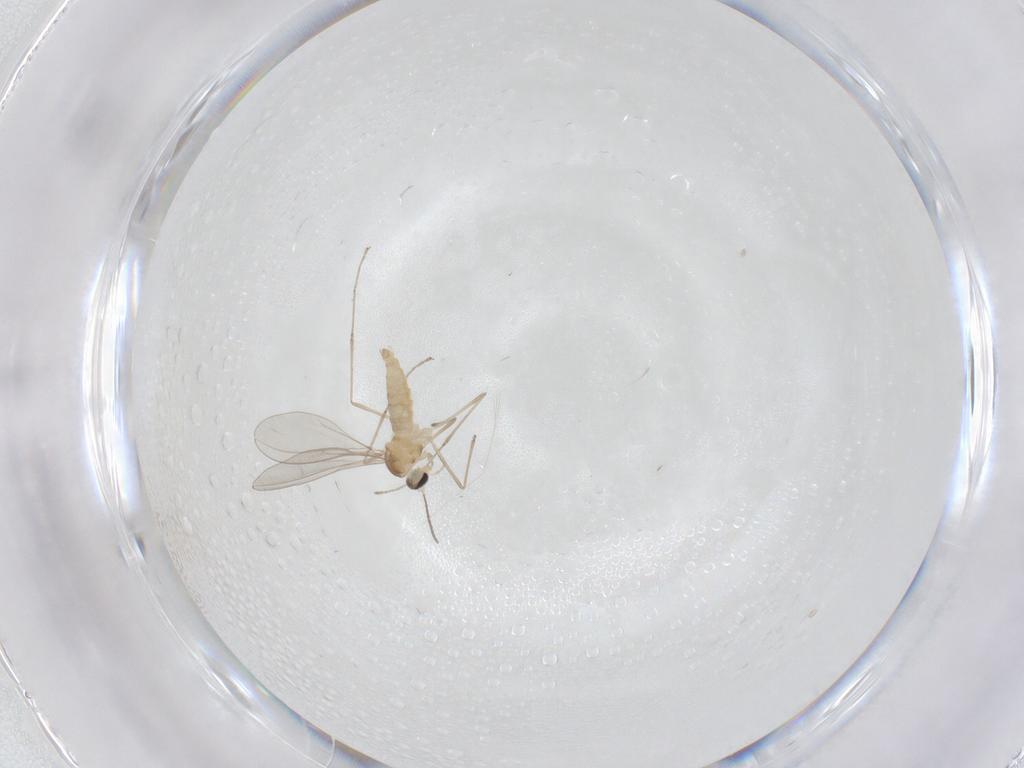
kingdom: Animalia
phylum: Arthropoda
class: Insecta
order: Diptera
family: Cecidomyiidae
